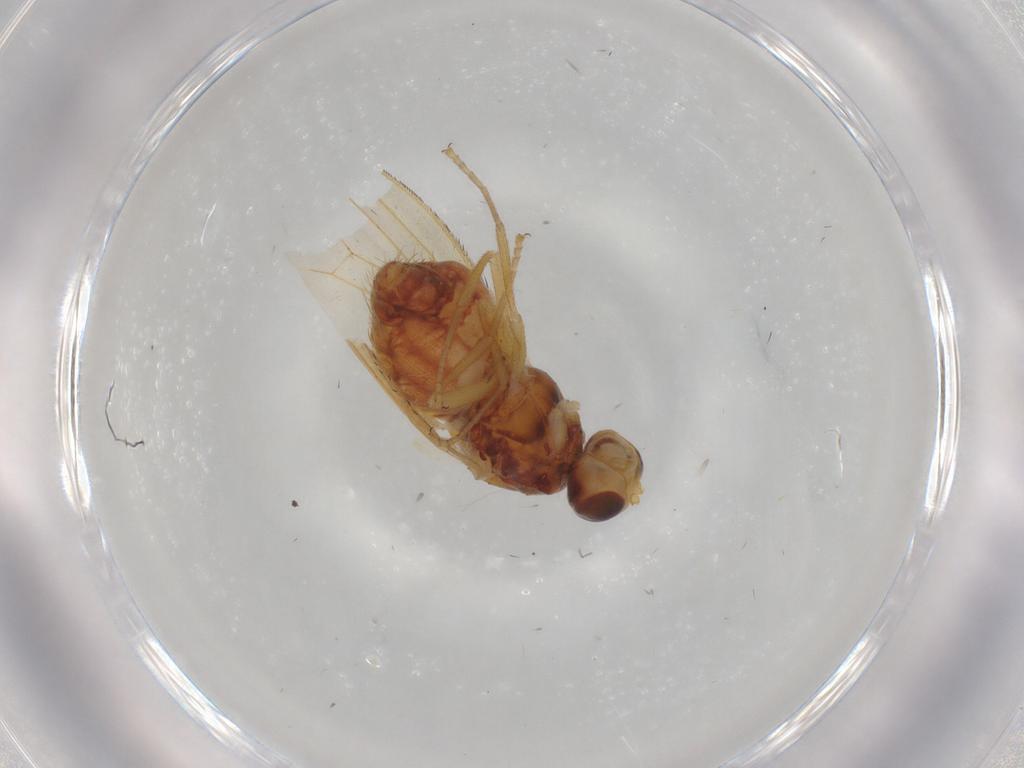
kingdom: Animalia
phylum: Arthropoda
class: Insecta
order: Diptera
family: Heleomyzidae
